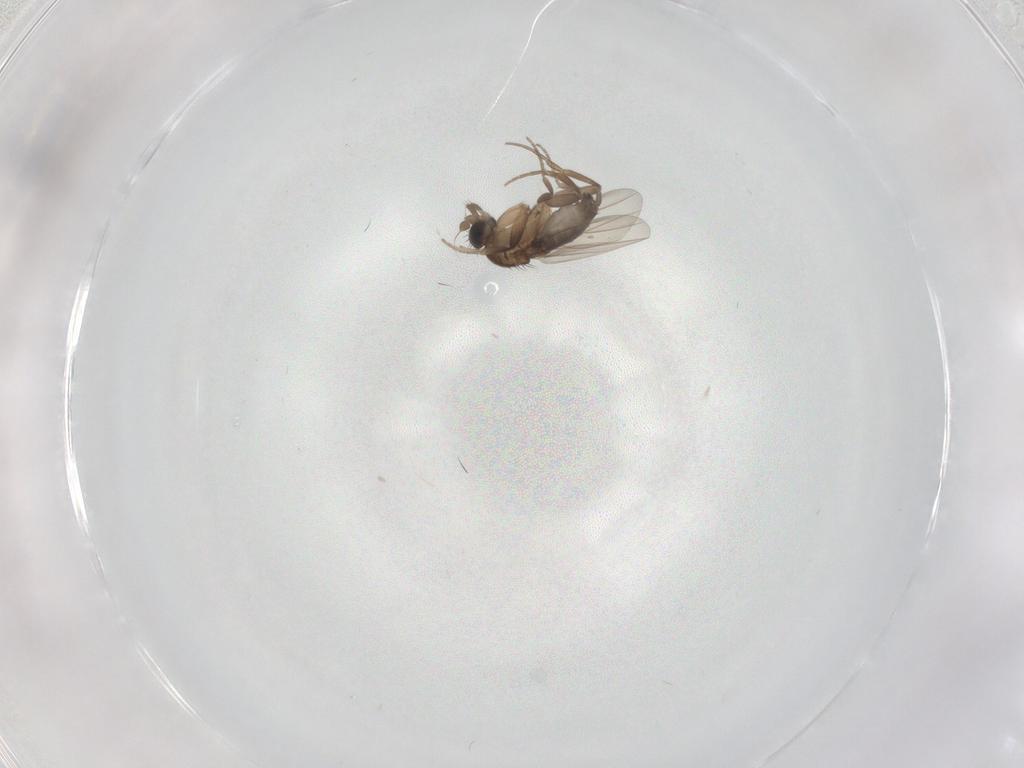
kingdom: Animalia
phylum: Arthropoda
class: Insecta
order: Diptera
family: Phoridae
